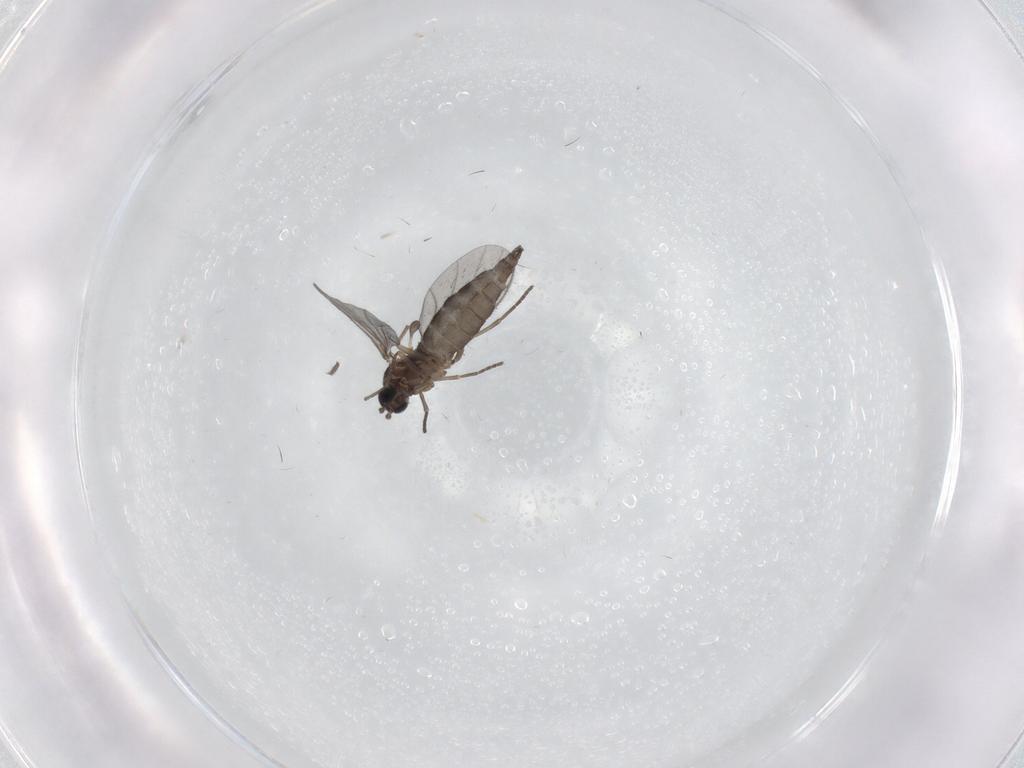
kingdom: Animalia
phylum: Arthropoda
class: Insecta
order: Diptera
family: Sciaridae
